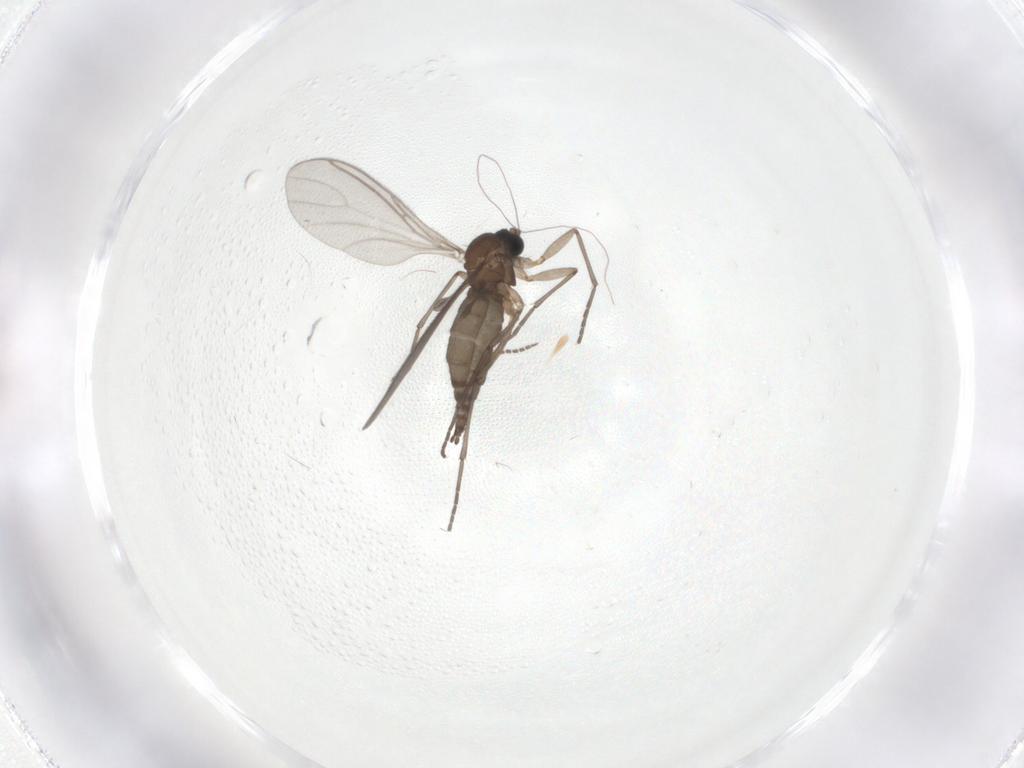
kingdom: Animalia
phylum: Arthropoda
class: Insecta
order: Diptera
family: Sciaridae
